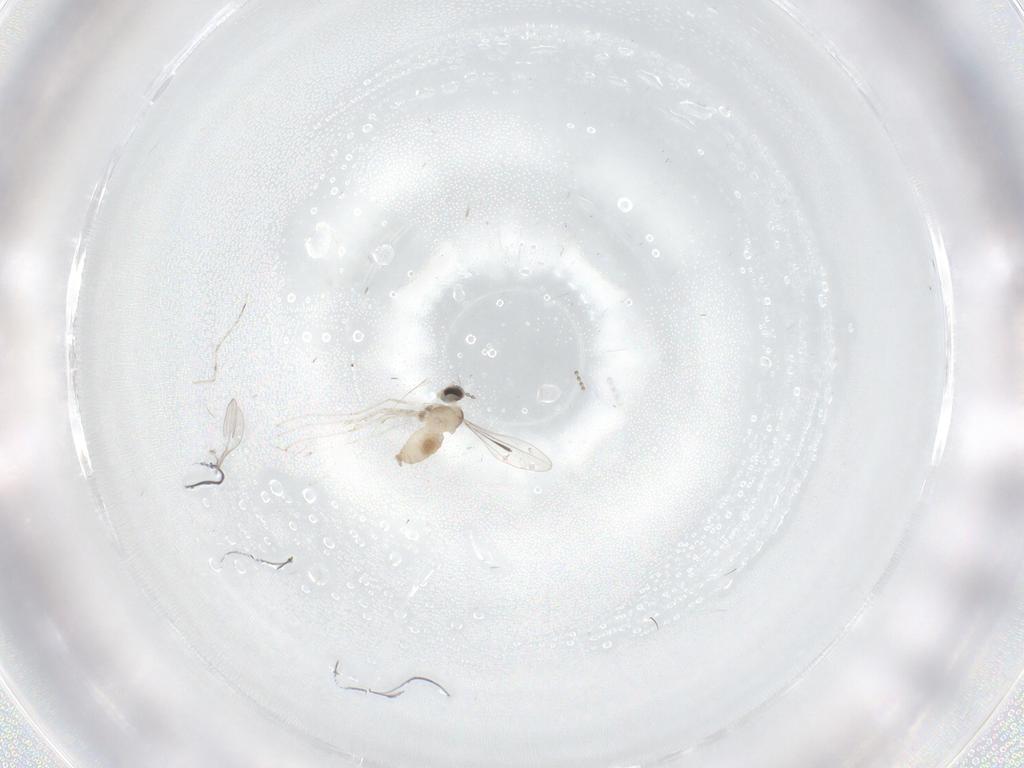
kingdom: Animalia
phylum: Arthropoda
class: Insecta
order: Diptera
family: Cecidomyiidae
